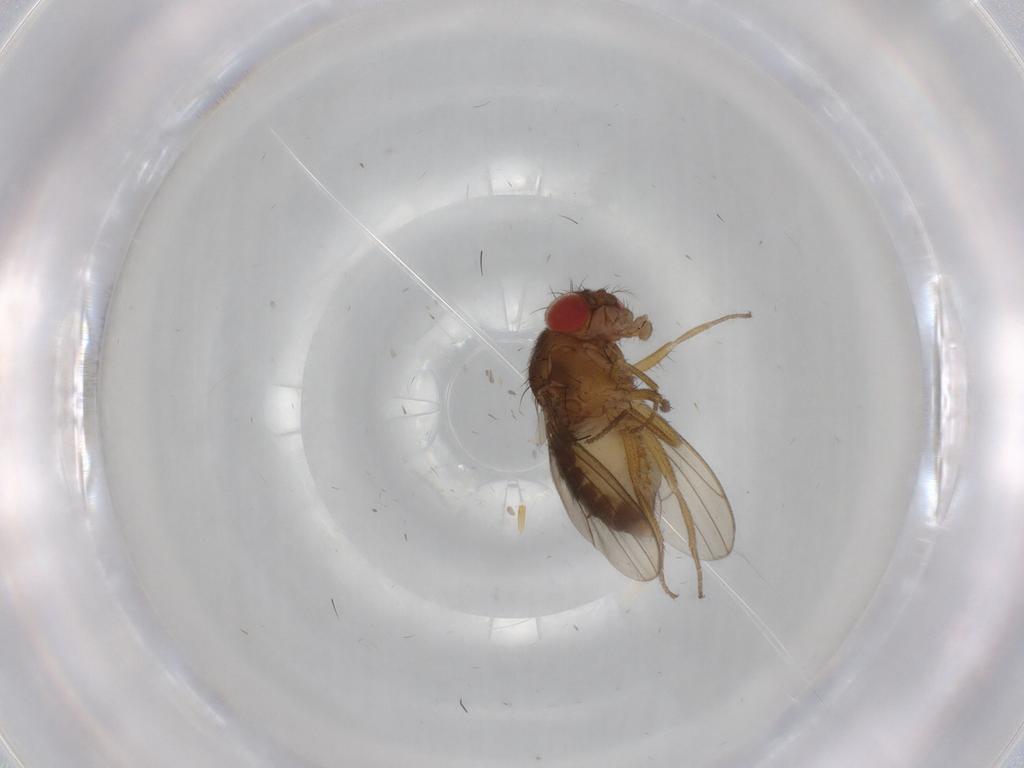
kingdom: Animalia
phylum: Arthropoda
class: Insecta
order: Diptera
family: Drosophilidae
